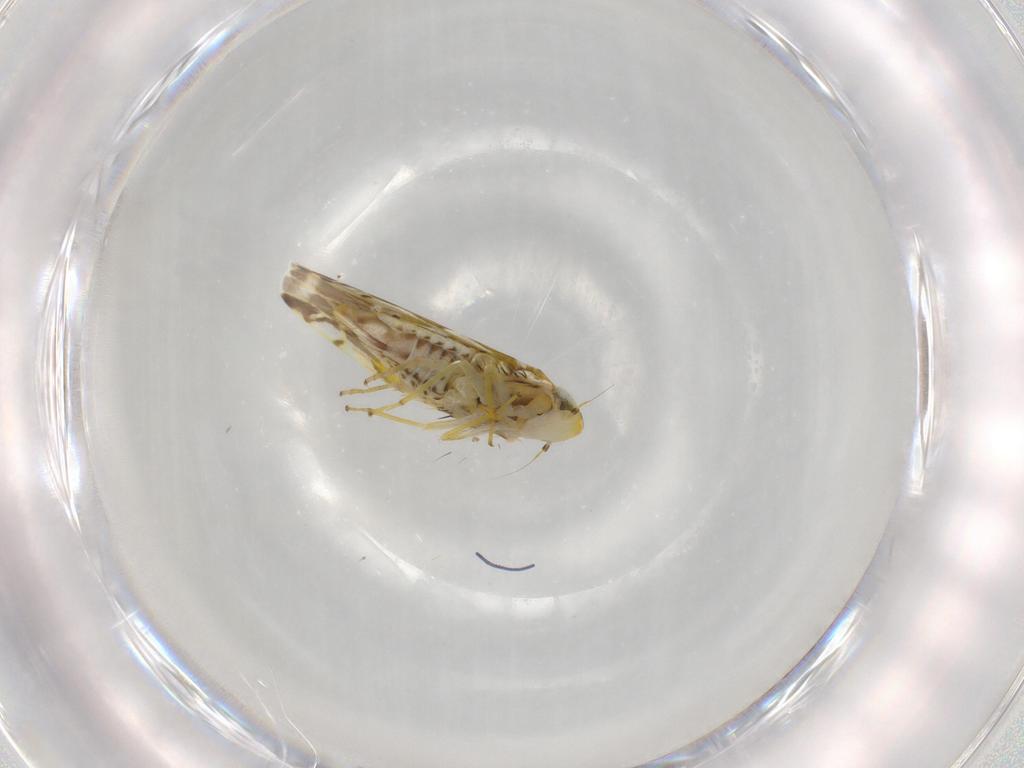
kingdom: Animalia
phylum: Arthropoda
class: Insecta
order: Hemiptera
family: Cicadellidae
